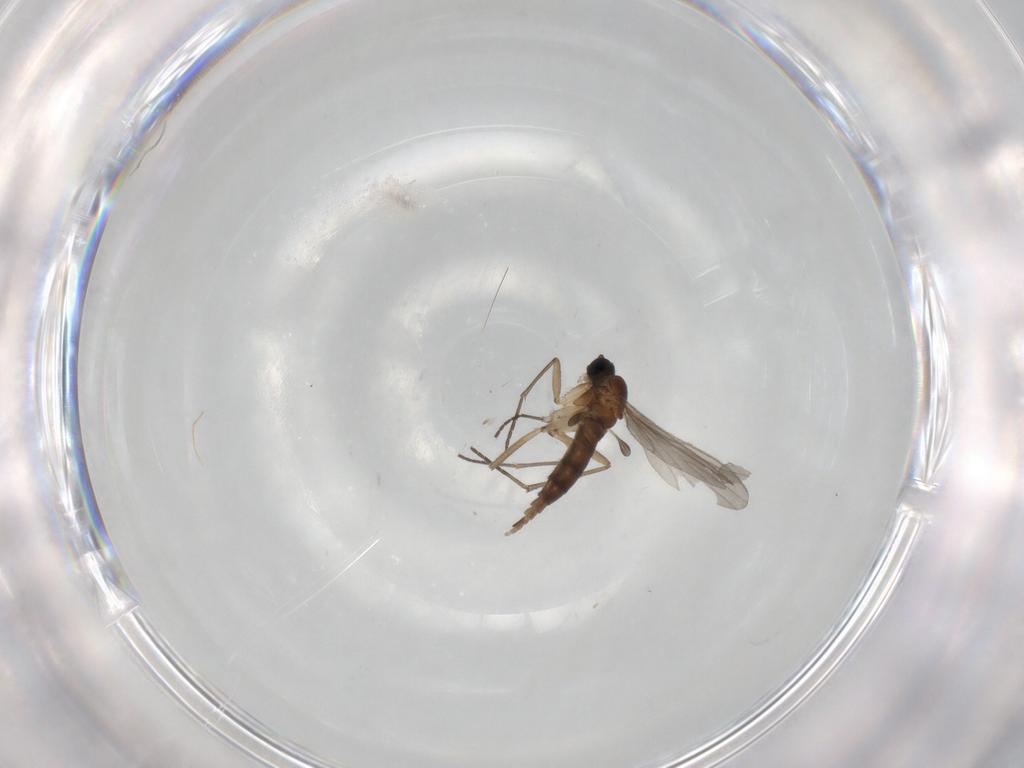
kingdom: Animalia
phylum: Arthropoda
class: Insecta
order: Diptera
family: Sciaridae
